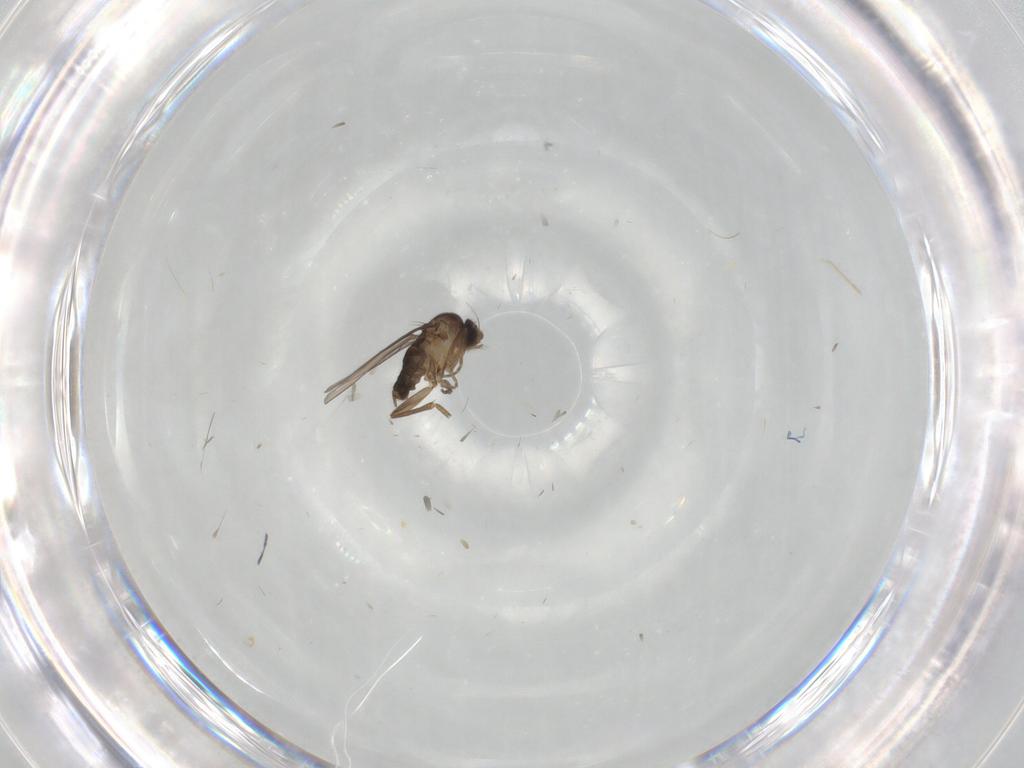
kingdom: Animalia
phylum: Arthropoda
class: Insecta
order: Diptera
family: Phoridae
